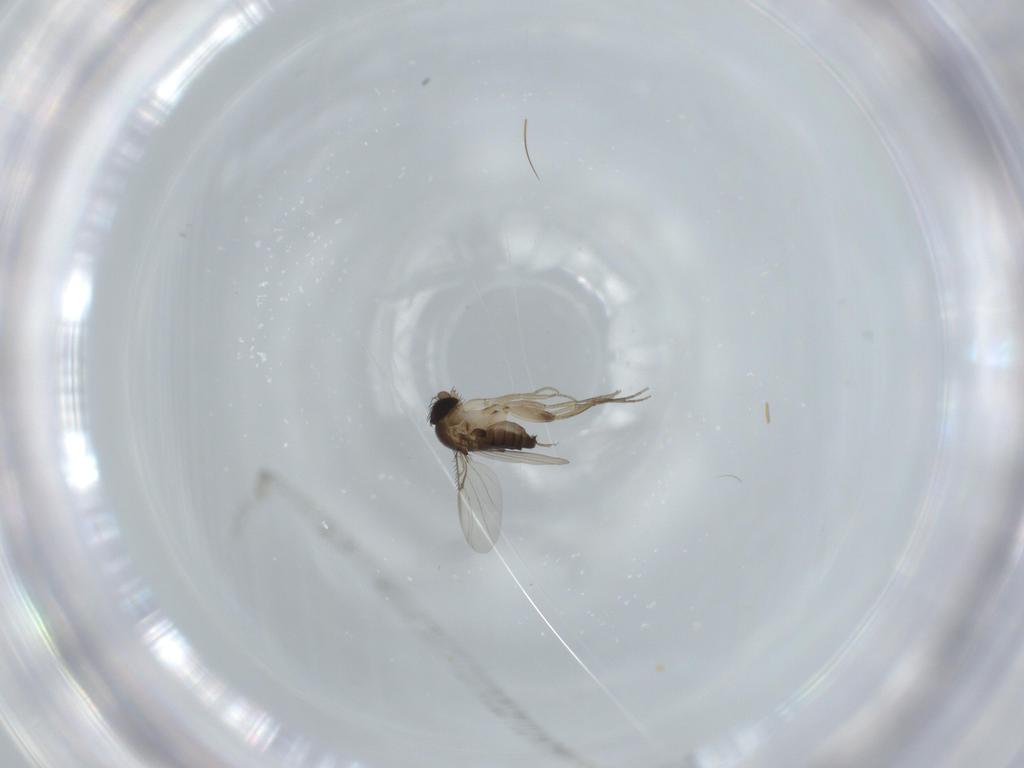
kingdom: Animalia
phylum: Arthropoda
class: Insecta
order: Diptera
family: Phoridae
